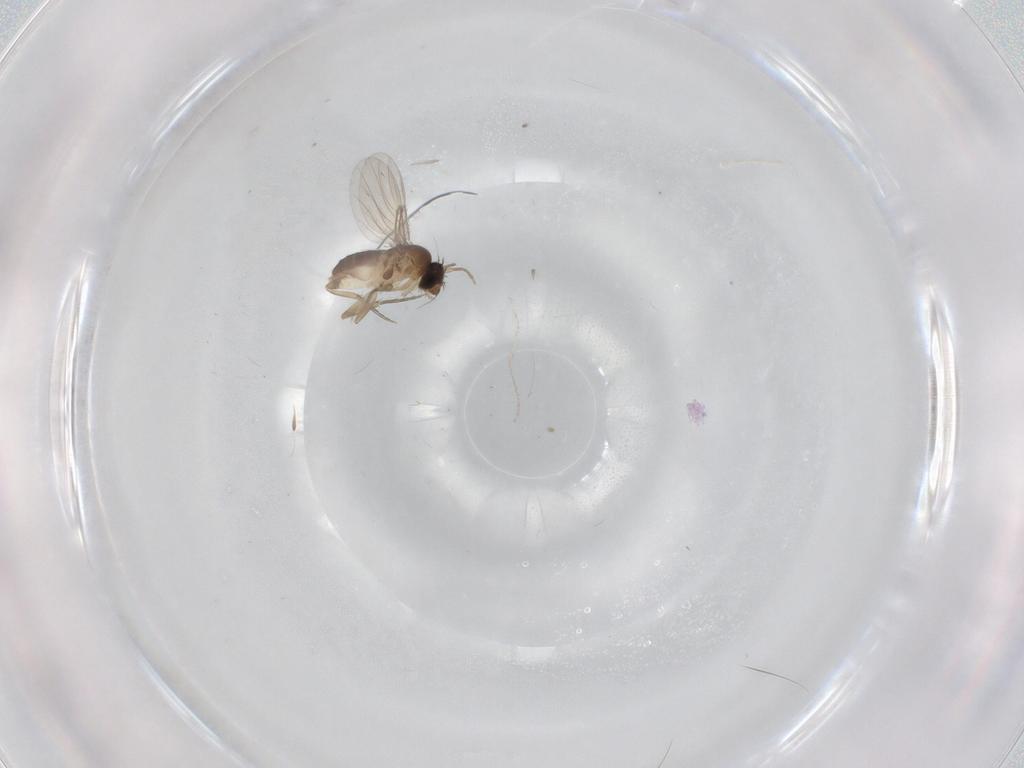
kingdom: Animalia
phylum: Arthropoda
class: Insecta
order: Diptera
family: Phoridae
